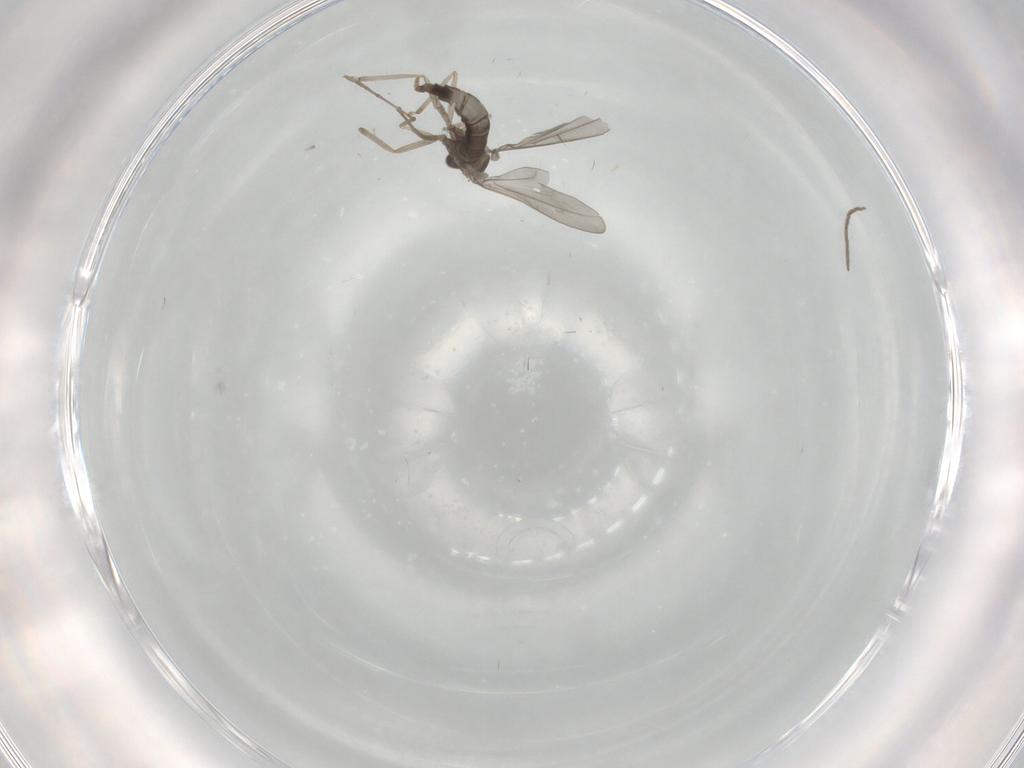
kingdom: Animalia
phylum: Arthropoda
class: Insecta
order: Diptera
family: Cecidomyiidae
